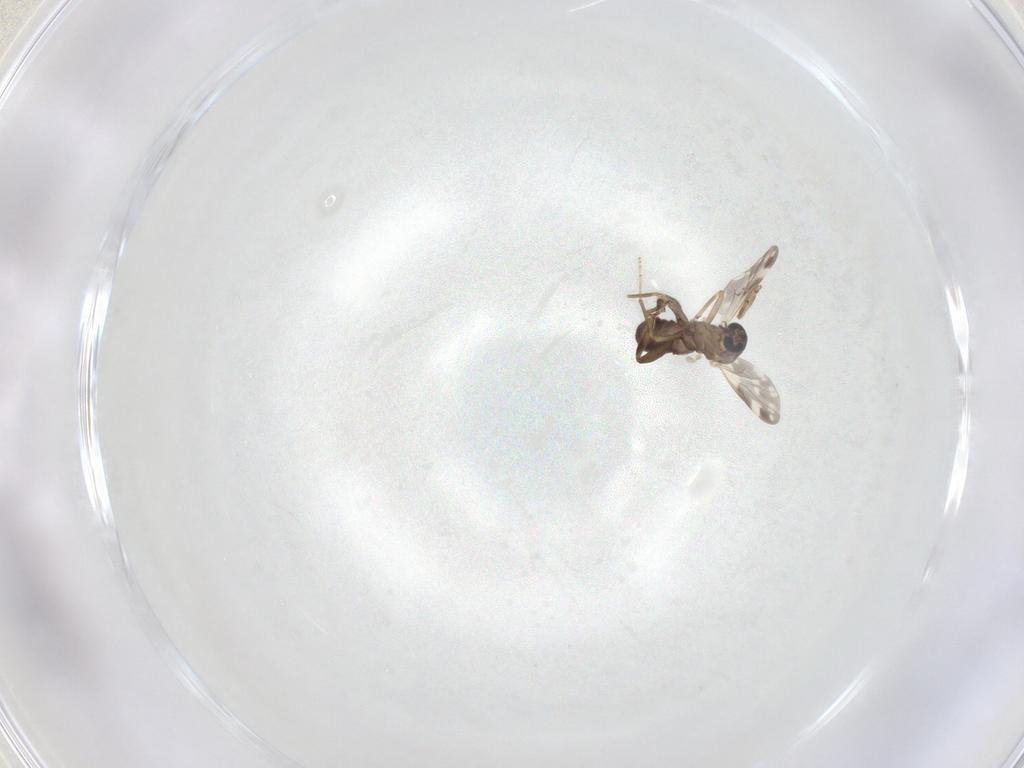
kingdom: Animalia
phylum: Arthropoda
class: Insecta
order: Diptera
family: Ceratopogonidae
